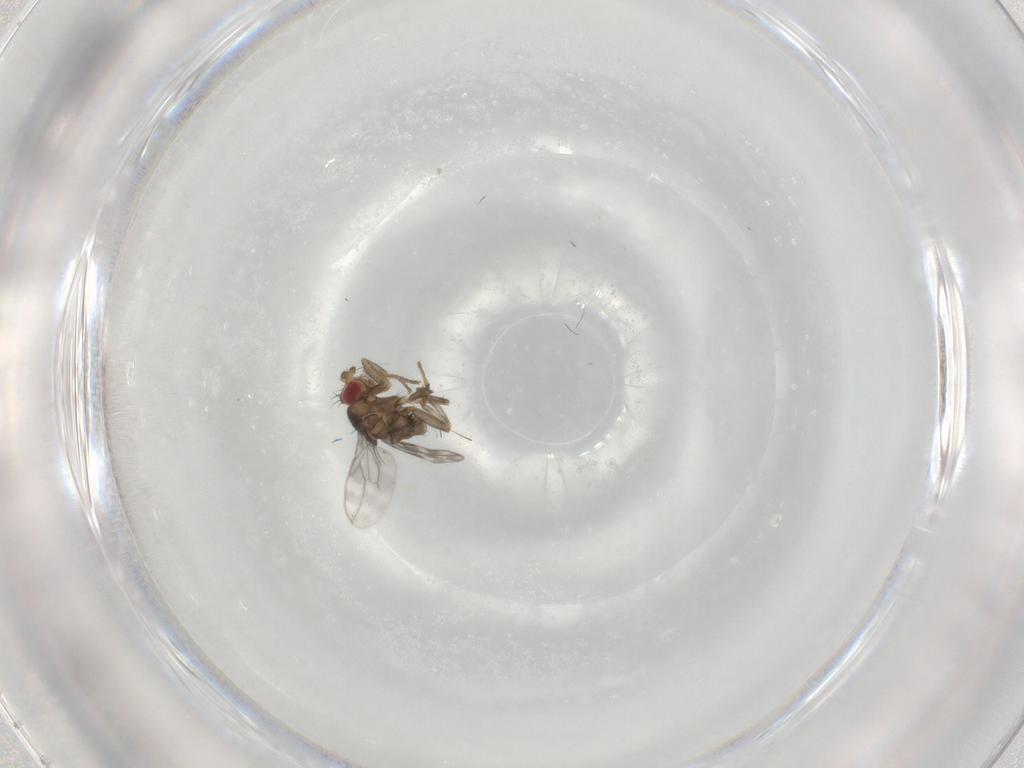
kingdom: Animalia
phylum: Arthropoda
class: Insecta
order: Diptera
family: Sphaeroceridae
